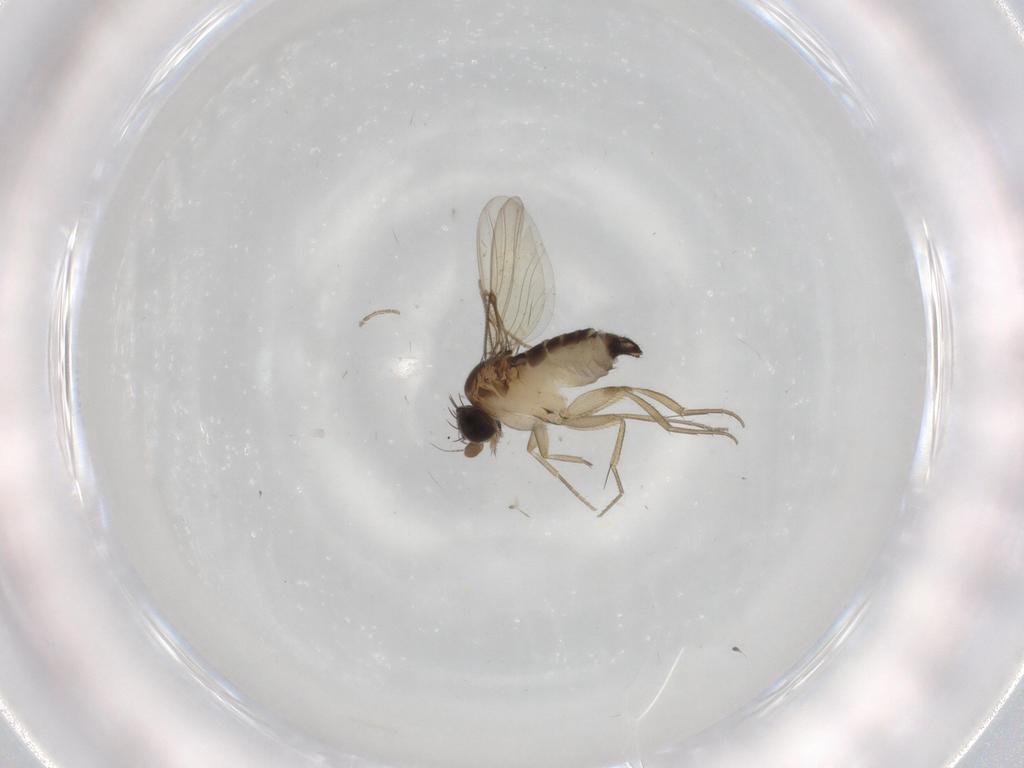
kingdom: Animalia
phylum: Arthropoda
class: Insecta
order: Diptera
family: Phoridae
